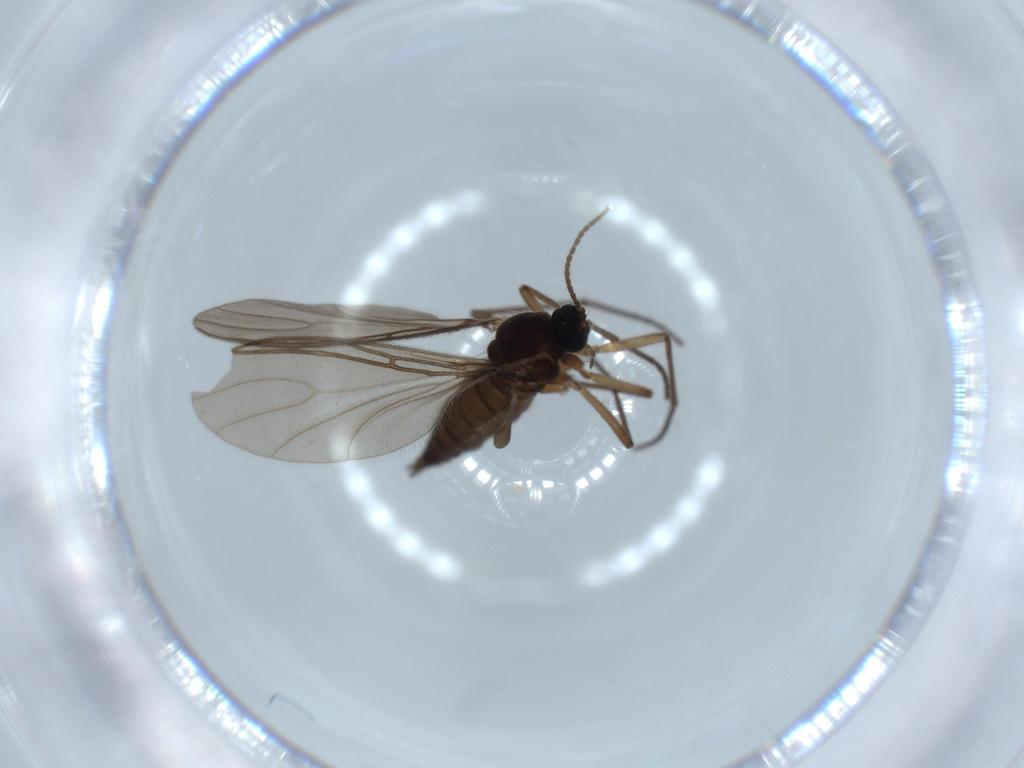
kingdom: Animalia
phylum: Arthropoda
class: Insecta
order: Diptera
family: Sciaridae
